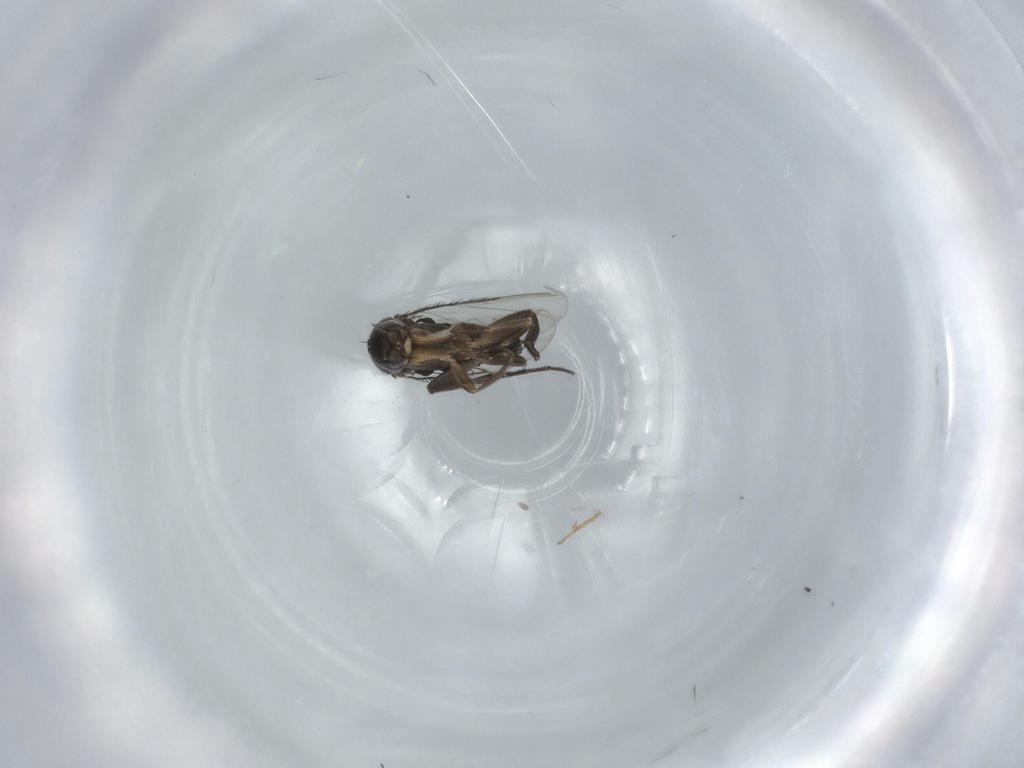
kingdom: Animalia
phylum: Arthropoda
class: Insecta
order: Diptera
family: Phoridae
